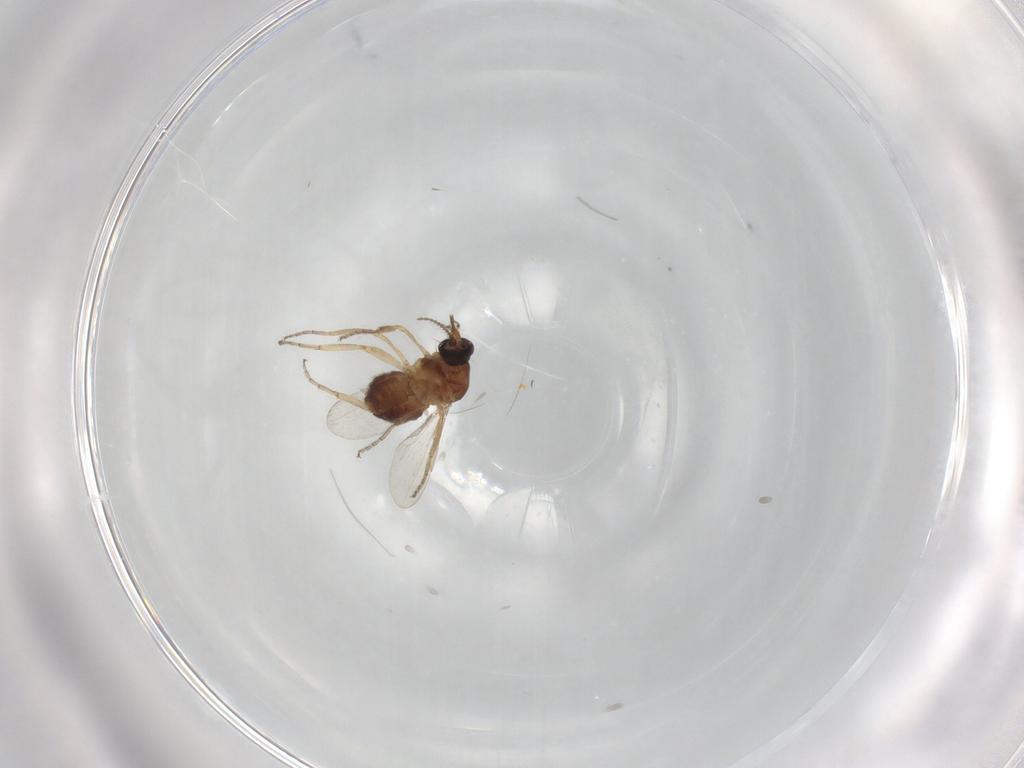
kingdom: Animalia
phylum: Arthropoda
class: Insecta
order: Diptera
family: Ceratopogonidae
